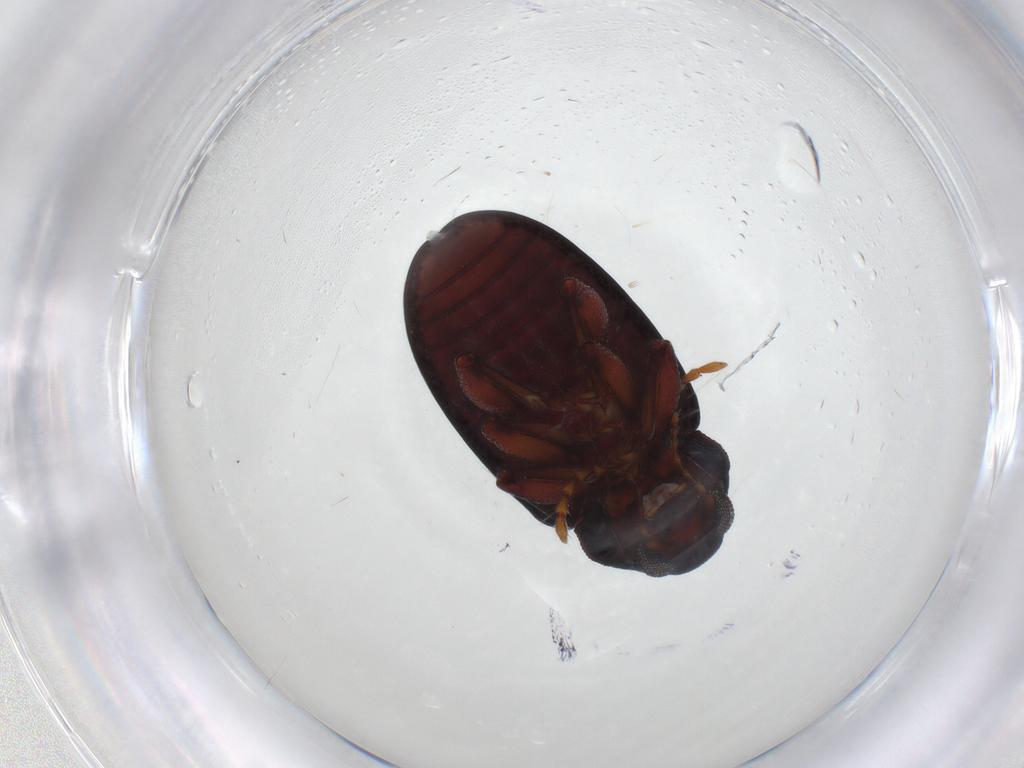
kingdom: Animalia
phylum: Arthropoda
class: Insecta
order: Coleoptera
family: Chrysomelidae
